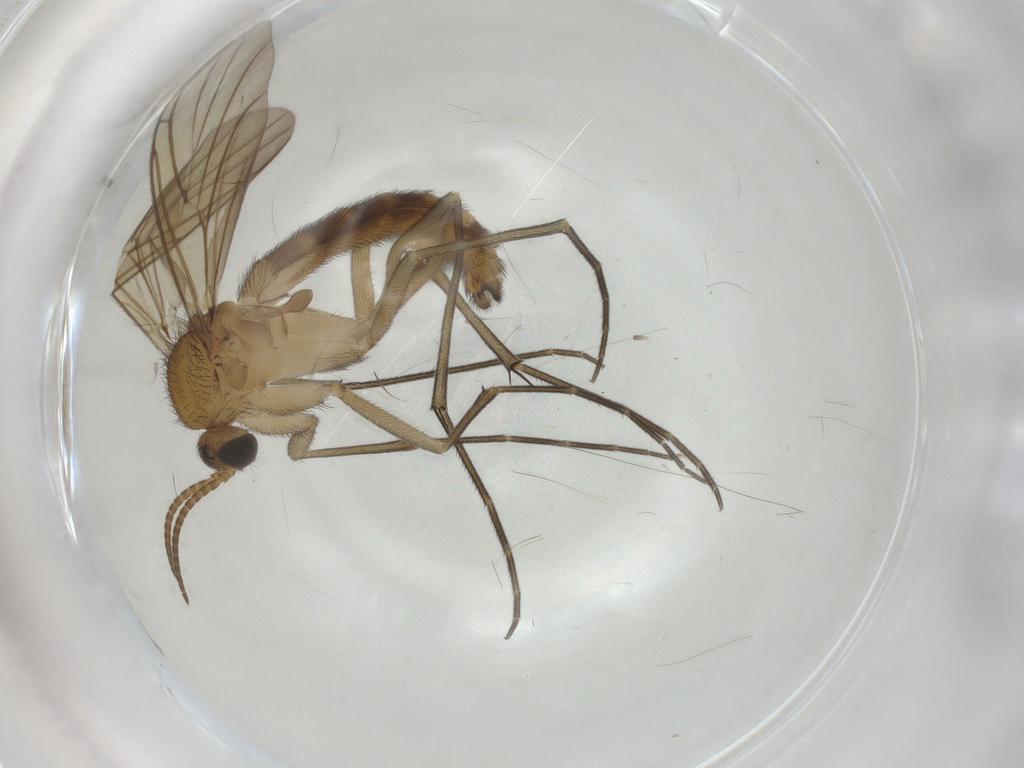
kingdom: Animalia
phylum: Arthropoda
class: Insecta
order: Diptera
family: Keroplatidae
